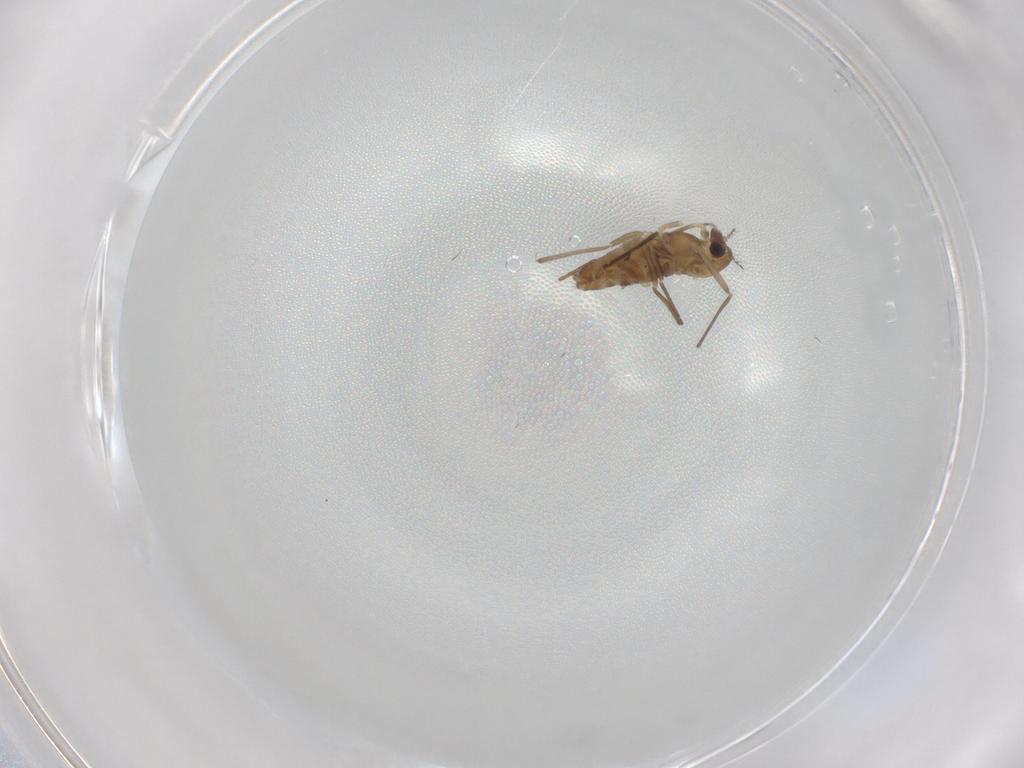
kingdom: Animalia
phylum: Arthropoda
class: Insecta
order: Diptera
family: Chironomidae
